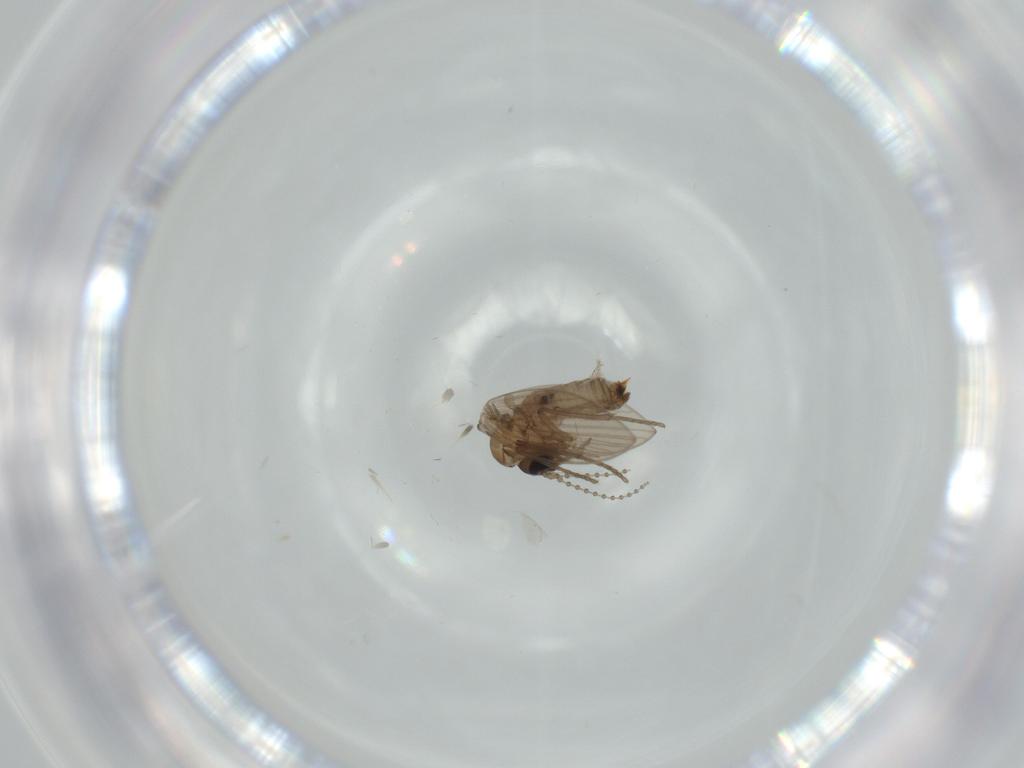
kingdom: Animalia
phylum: Arthropoda
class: Insecta
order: Diptera
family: Psychodidae
